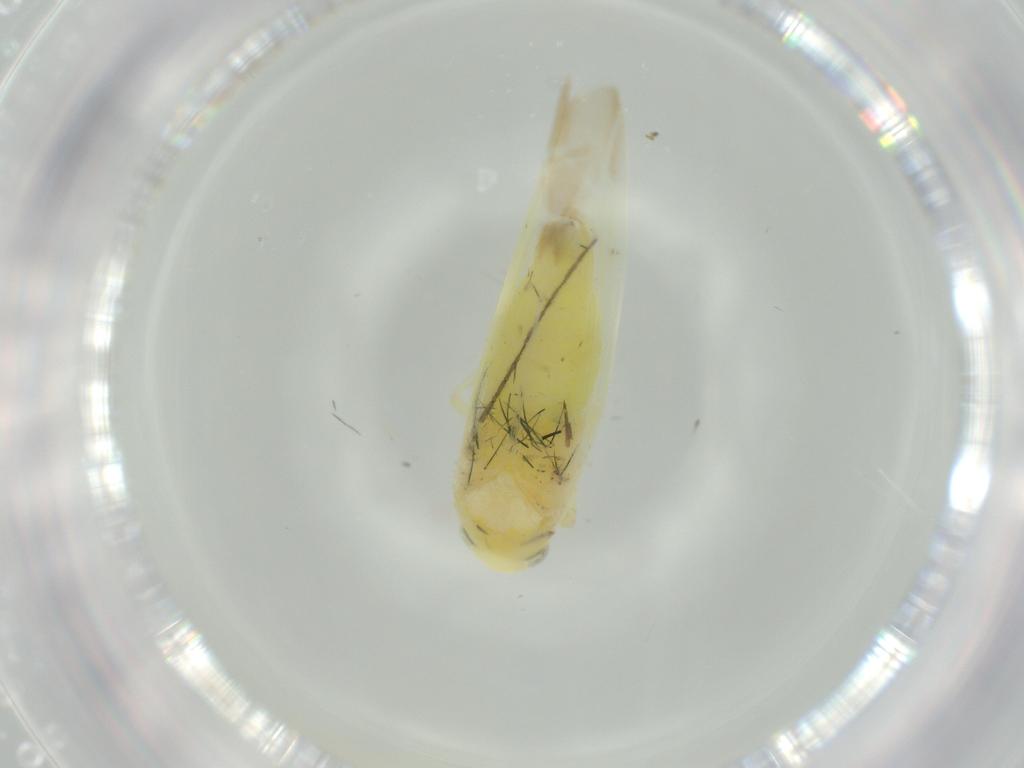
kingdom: Animalia
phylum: Arthropoda
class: Insecta
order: Hemiptera
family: Cicadellidae
